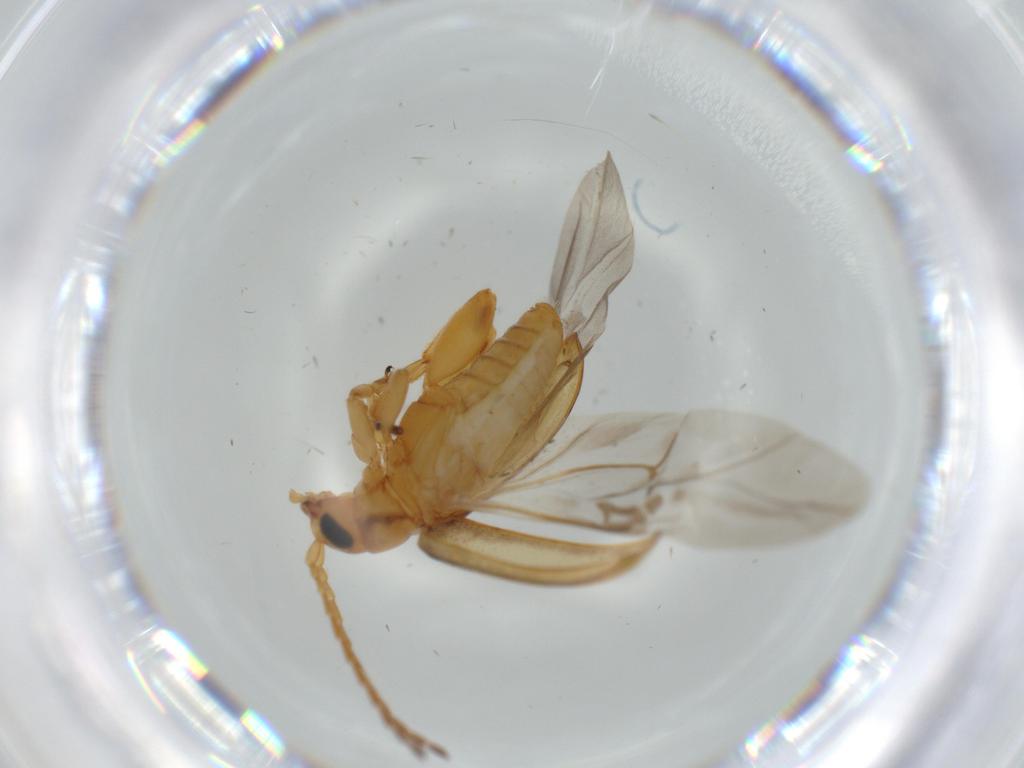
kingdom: Animalia
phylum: Arthropoda
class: Insecta
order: Coleoptera
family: Chrysomelidae
